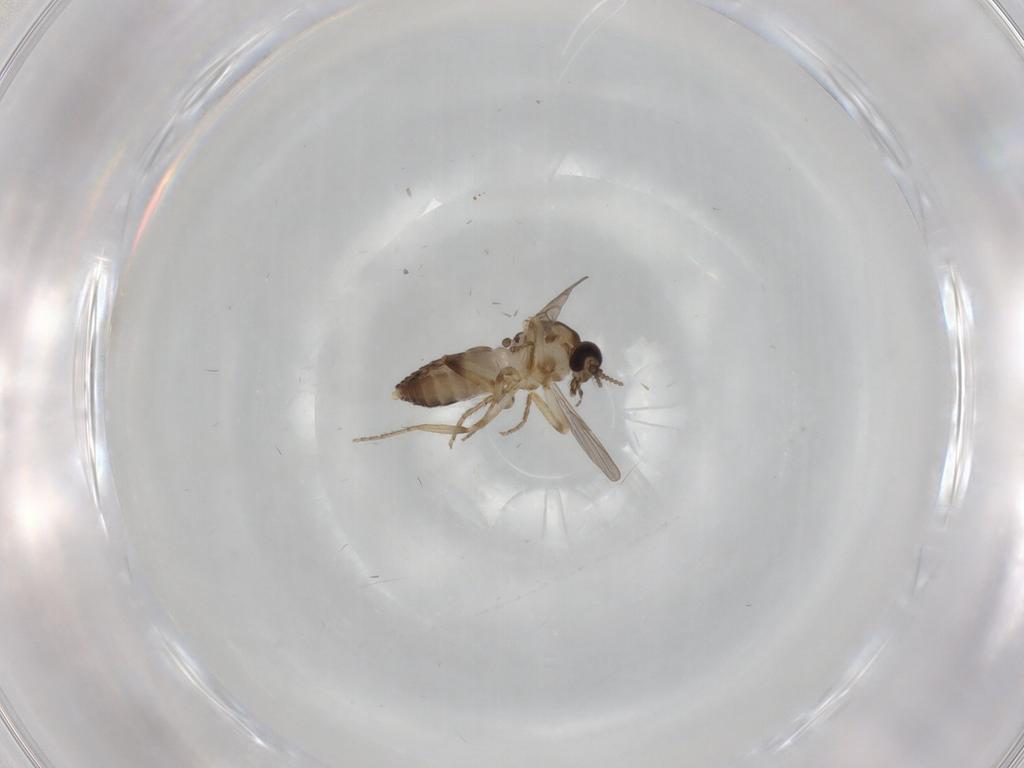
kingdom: Animalia
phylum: Arthropoda
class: Insecta
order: Diptera
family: Ceratopogonidae
